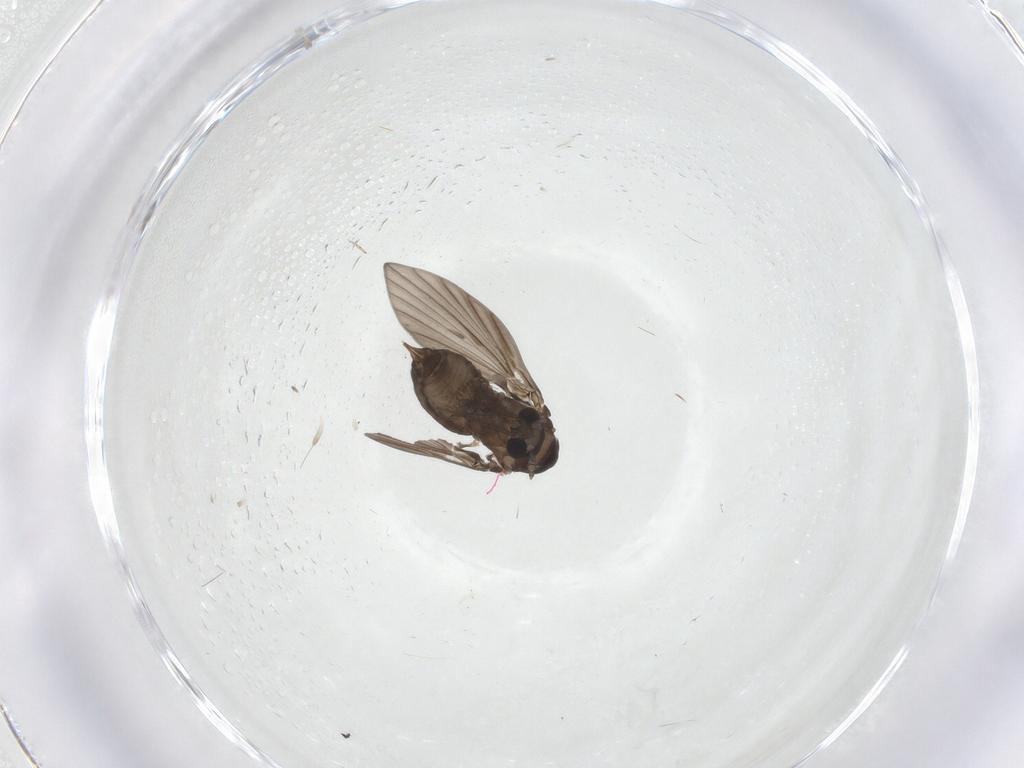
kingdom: Animalia
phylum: Arthropoda
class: Insecta
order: Diptera
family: Psychodidae
